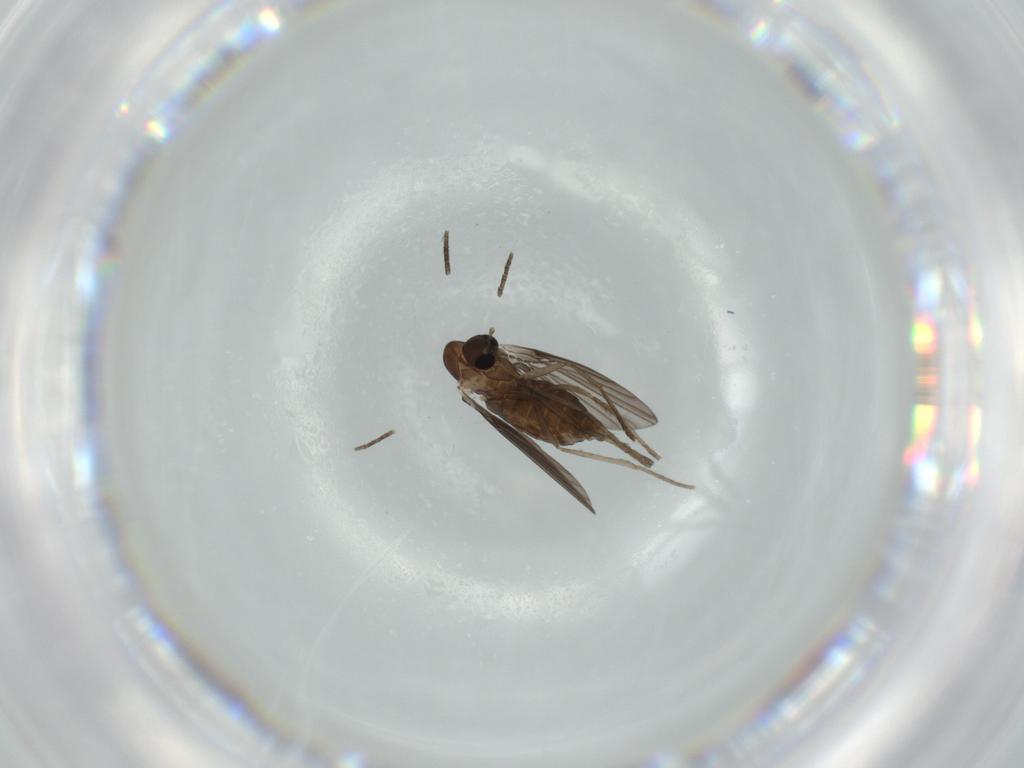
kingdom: Animalia
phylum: Arthropoda
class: Insecta
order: Diptera
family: Psychodidae
